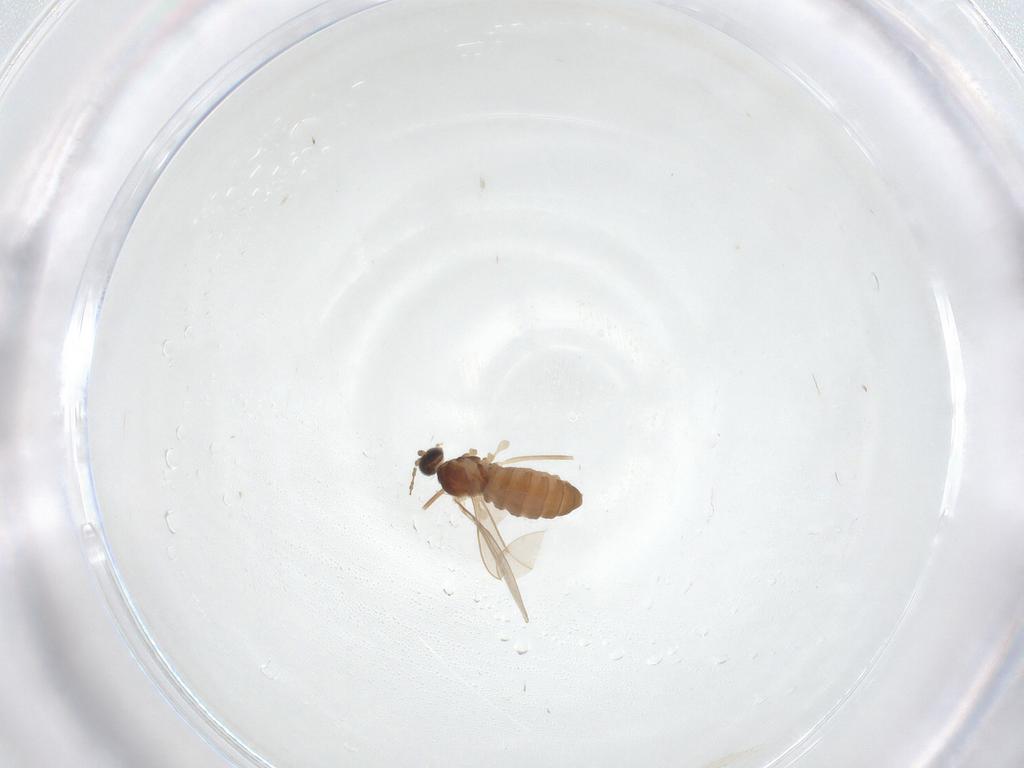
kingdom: Animalia
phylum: Arthropoda
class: Insecta
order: Diptera
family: Cecidomyiidae
